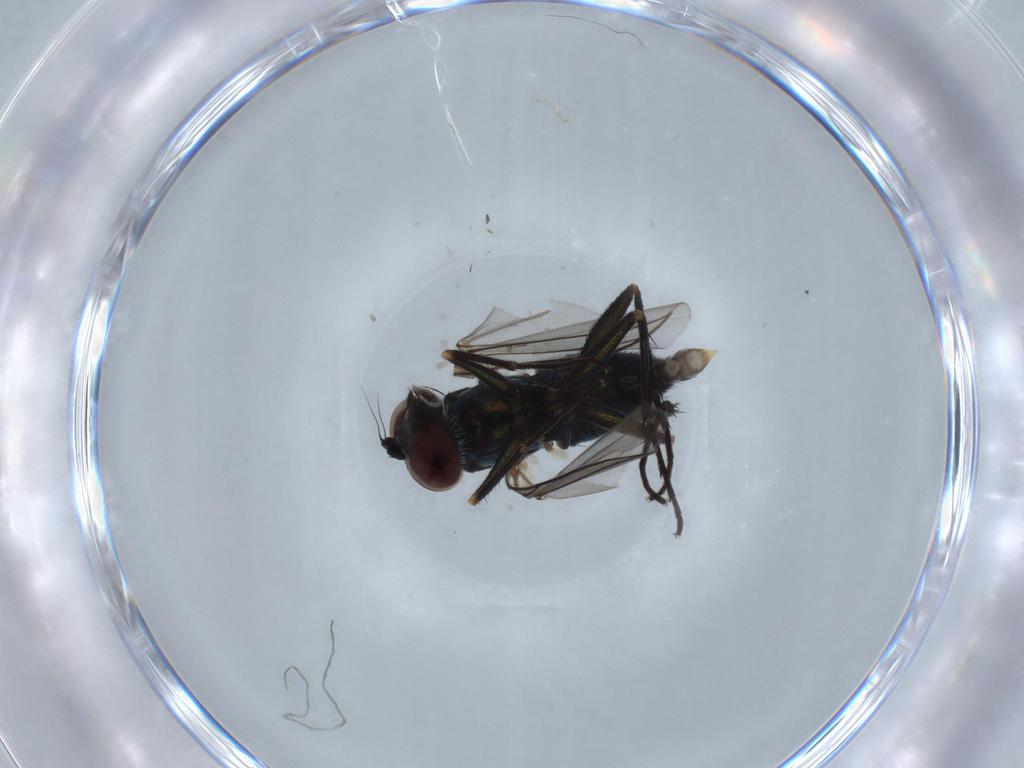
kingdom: Animalia
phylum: Arthropoda
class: Insecta
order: Diptera
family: Dolichopodidae
